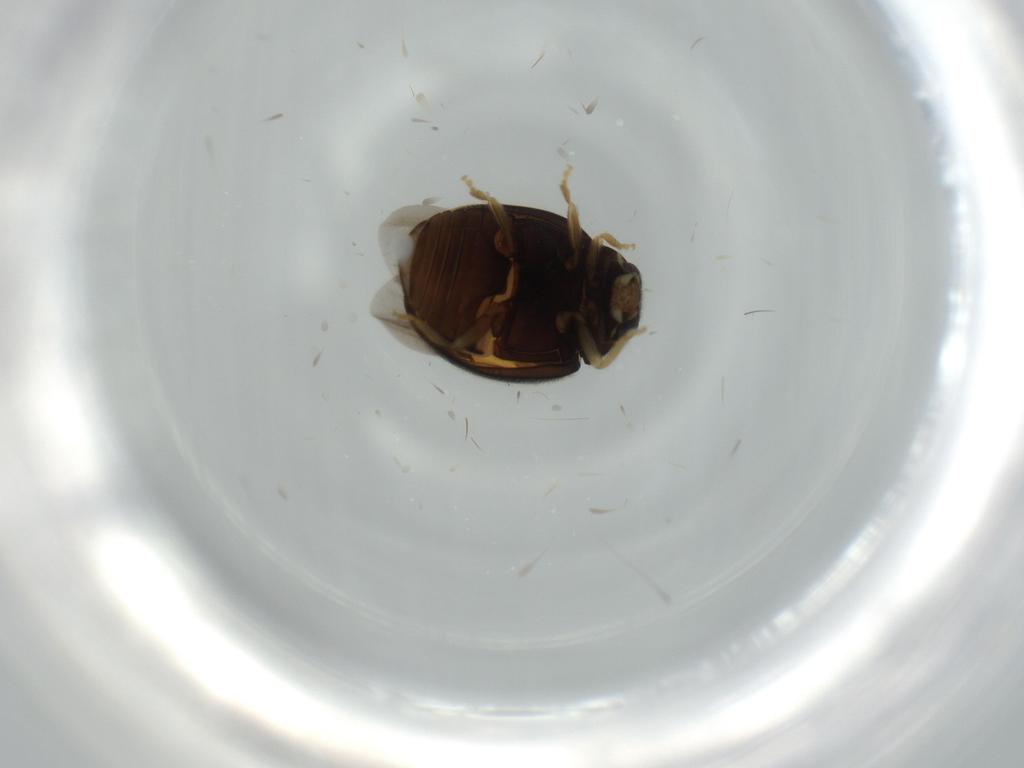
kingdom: Animalia
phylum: Arthropoda
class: Insecta
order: Coleoptera
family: Coccinellidae
